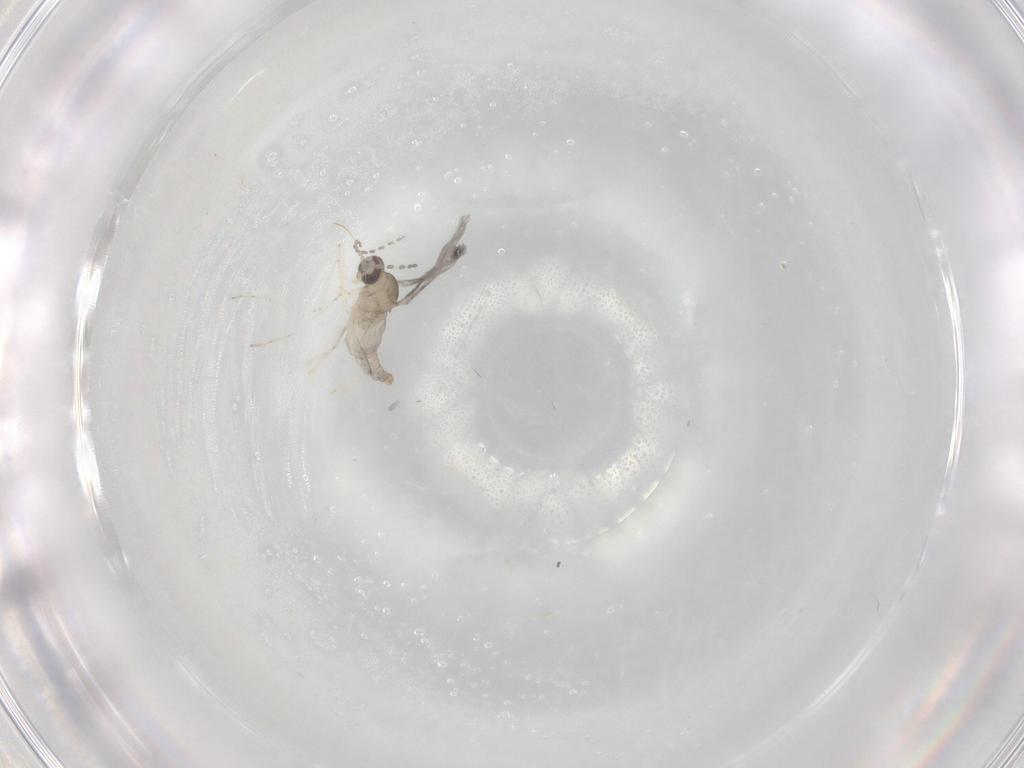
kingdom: Animalia
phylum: Arthropoda
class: Insecta
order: Diptera
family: Cecidomyiidae
